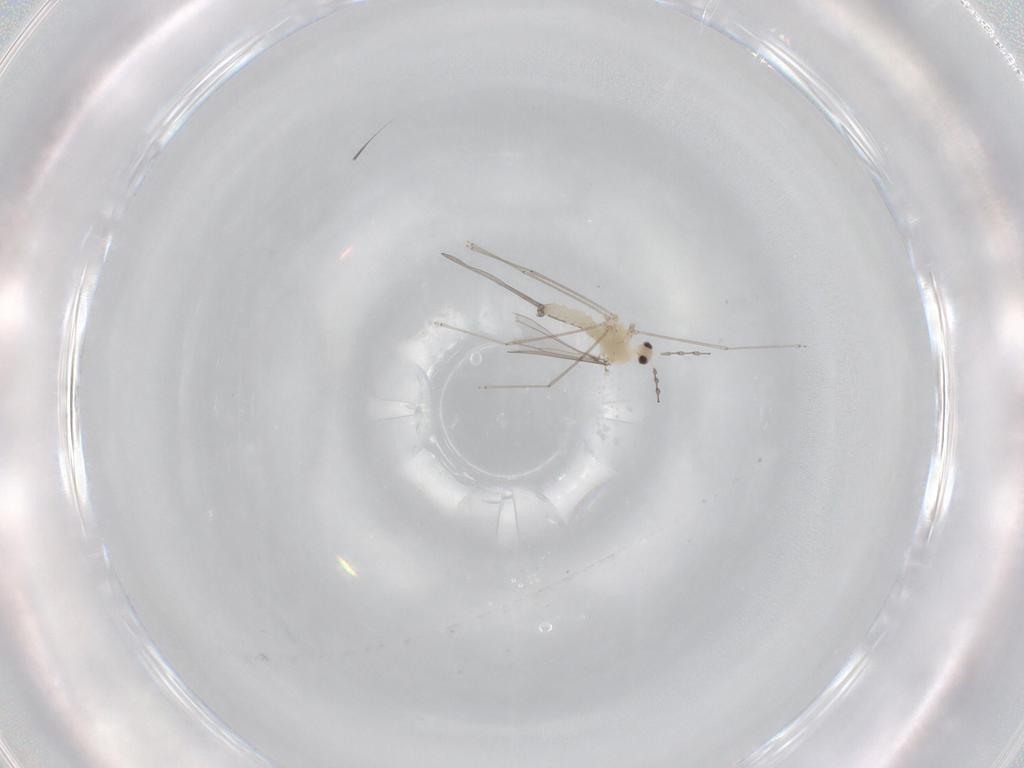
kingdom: Animalia
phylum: Arthropoda
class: Insecta
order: Diptera
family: Cecidomyiidae
